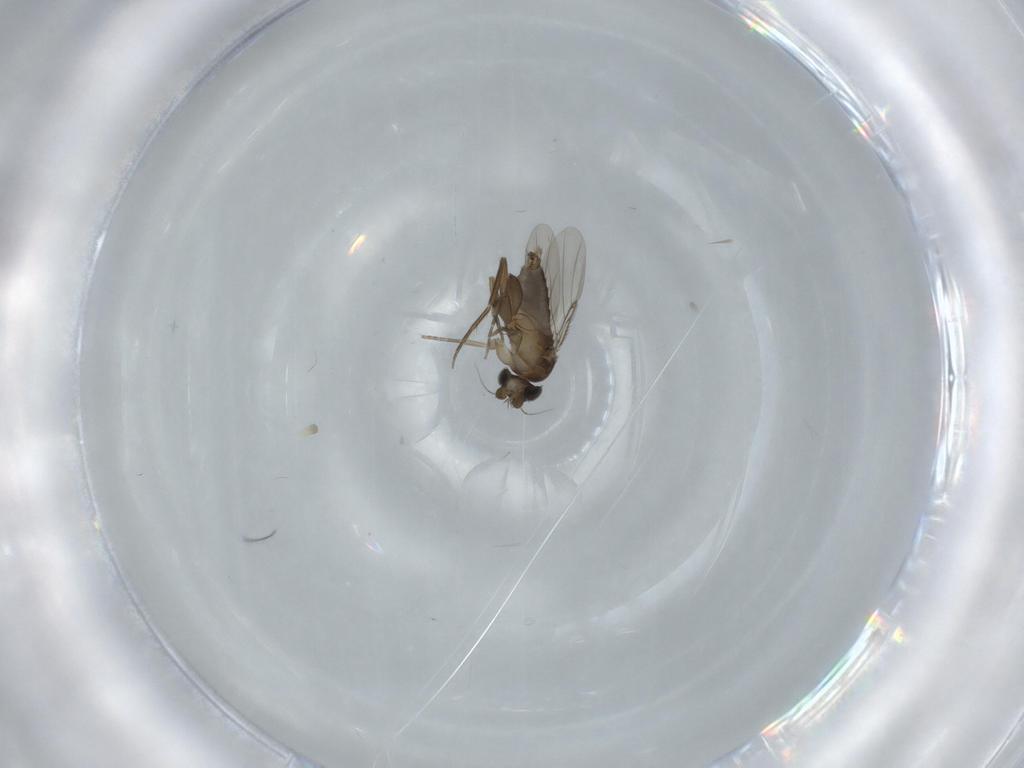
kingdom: Animalia
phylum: Arthropoda
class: Insecta
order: Diptera
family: Phoridae
